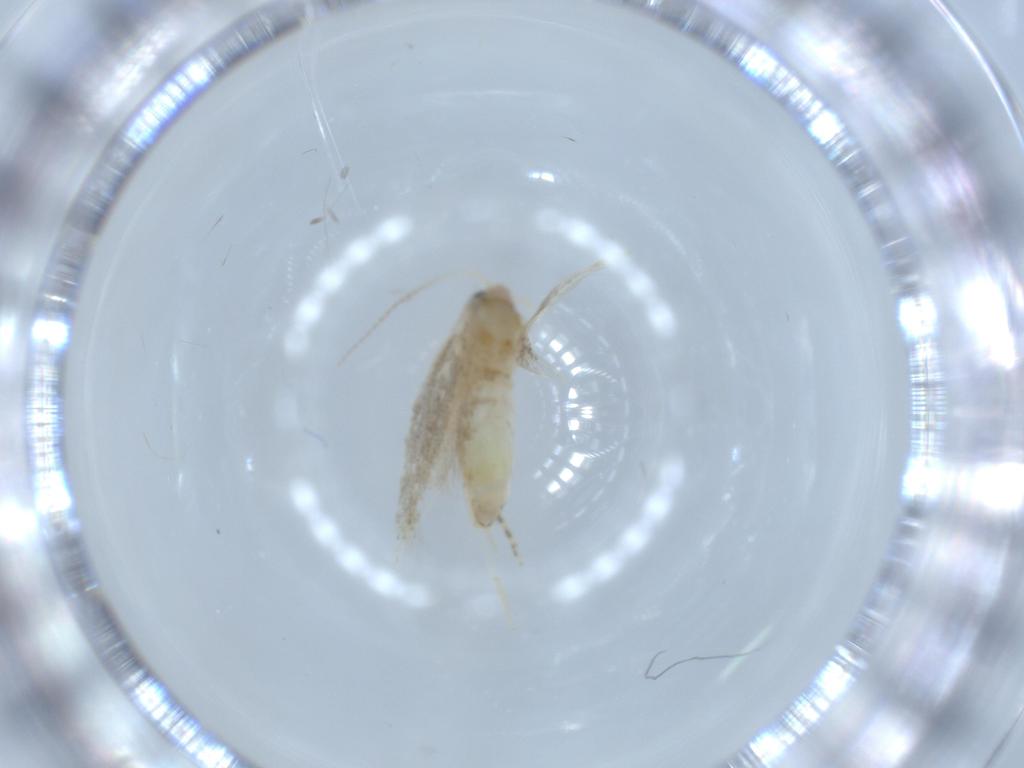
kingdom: Animalia
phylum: Arthropoda
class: Insecta
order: Lepidoptera
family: Bucculatricidae
